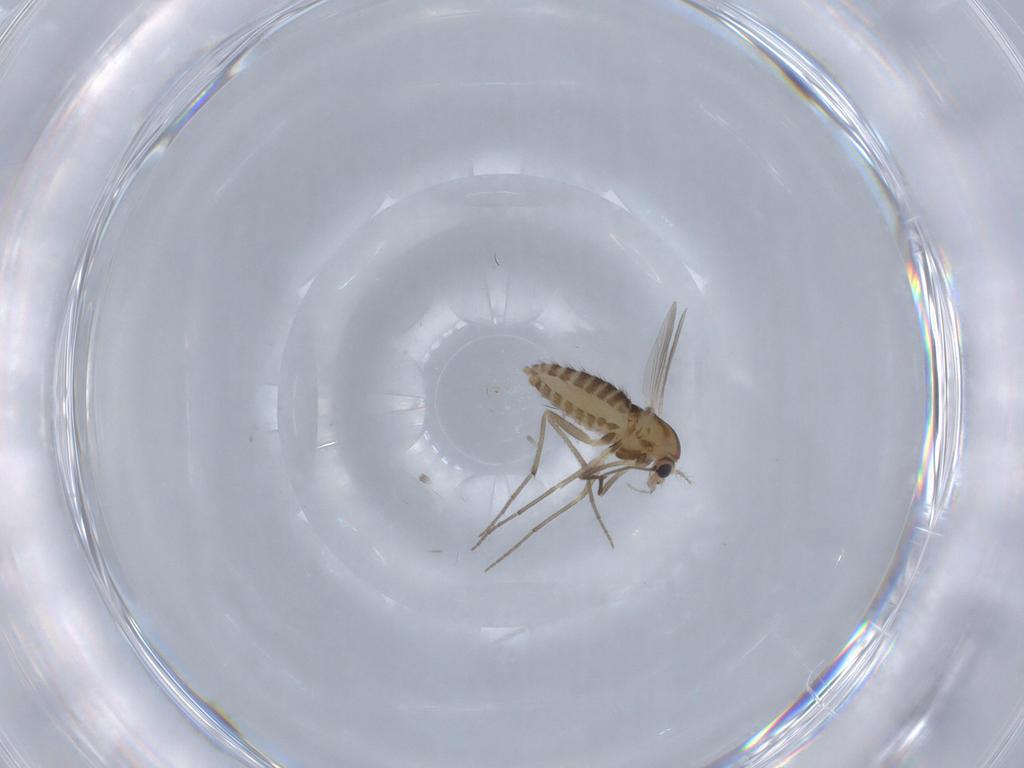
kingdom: Animalia
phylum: Arthropoda
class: Insecta
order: Diptera
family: Chironomidae
